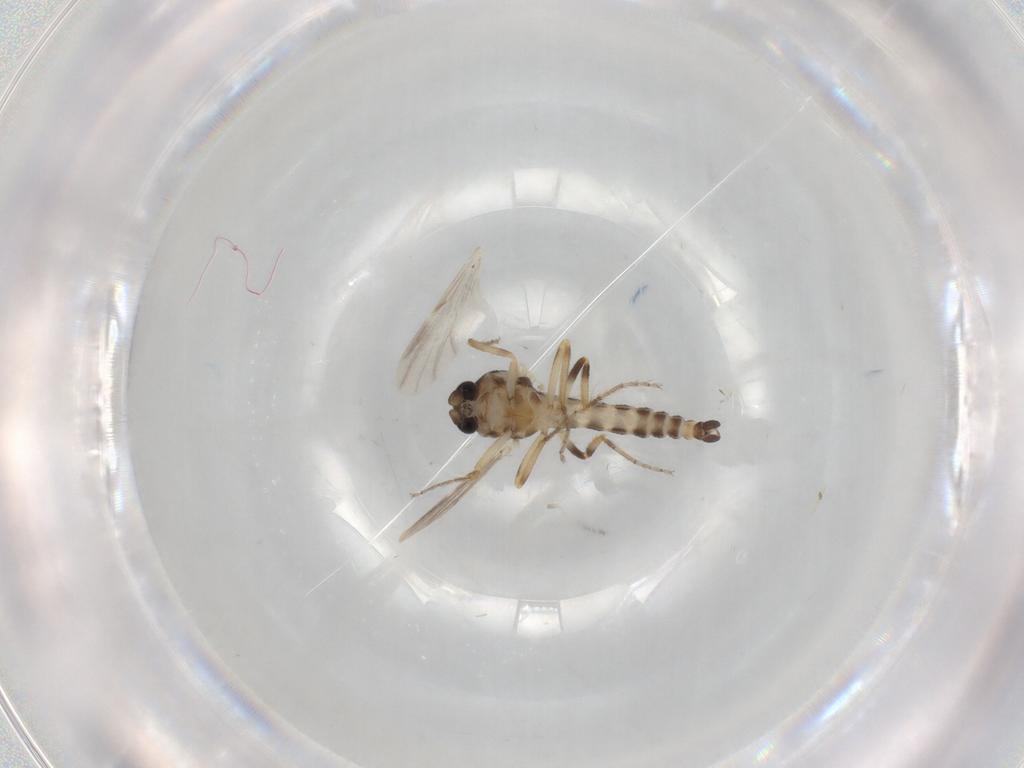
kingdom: Animalia
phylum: Arthropoda
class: Insecta
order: Diptera
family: Ceratopogonidae
